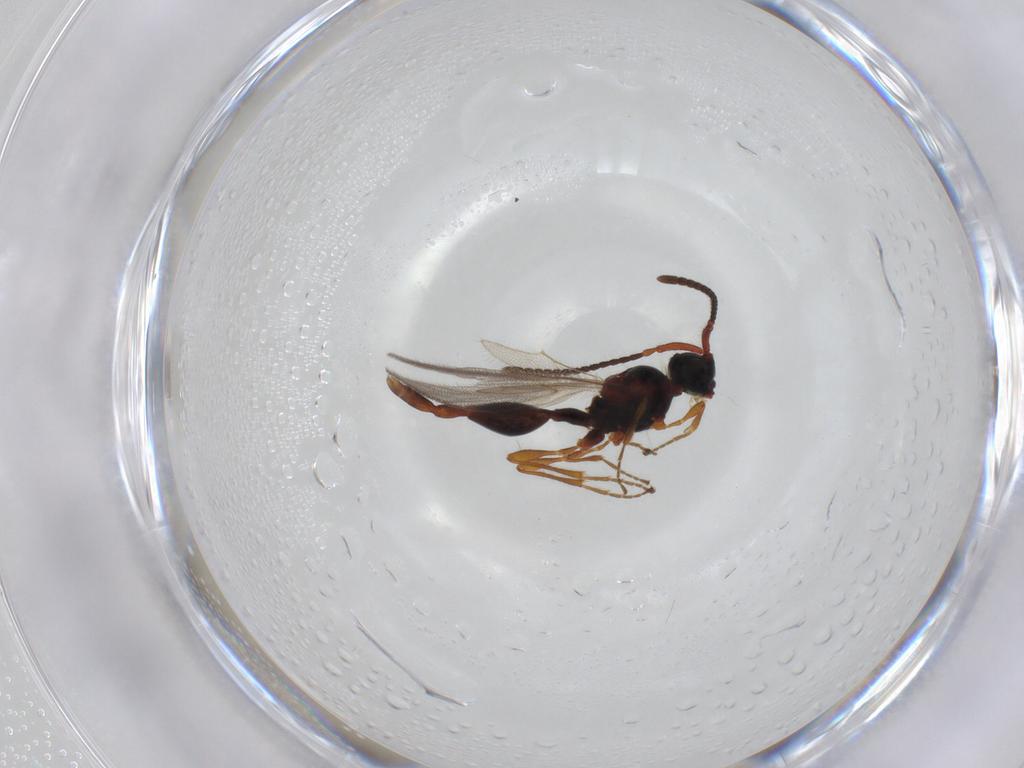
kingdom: Animalia
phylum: Arthropoda
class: Insecta
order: Hymenoptera
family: Diapriidae
